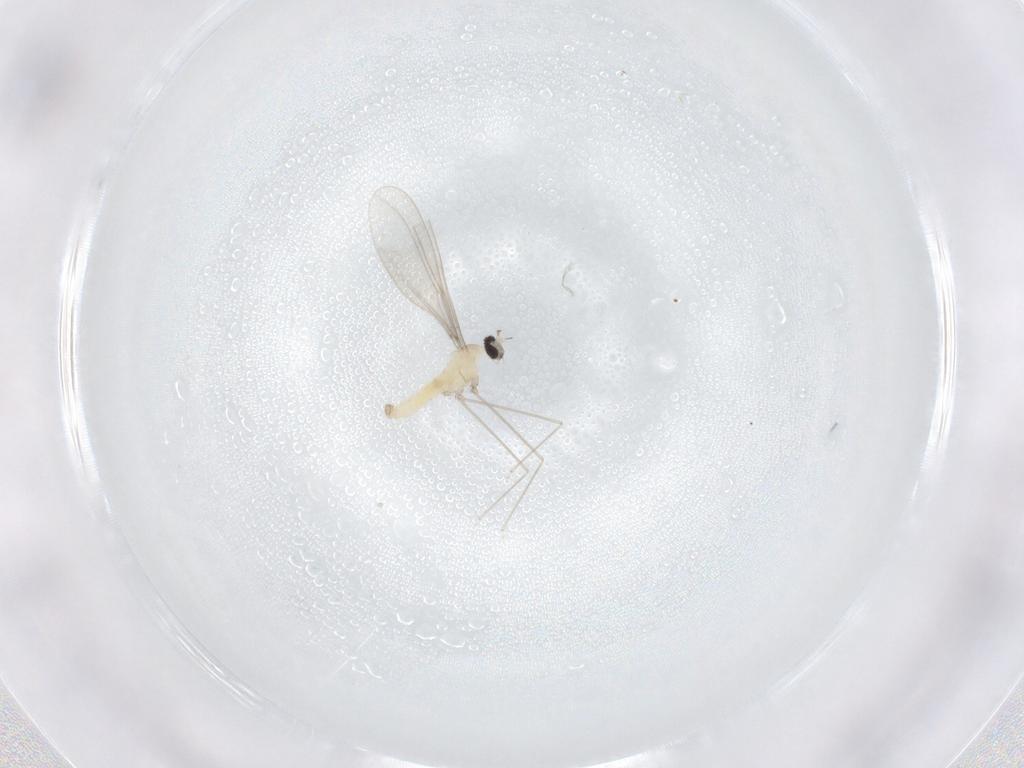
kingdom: Animalia
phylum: Arthropoda
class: Insecta
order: Diptera
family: Cecidomyiidae
